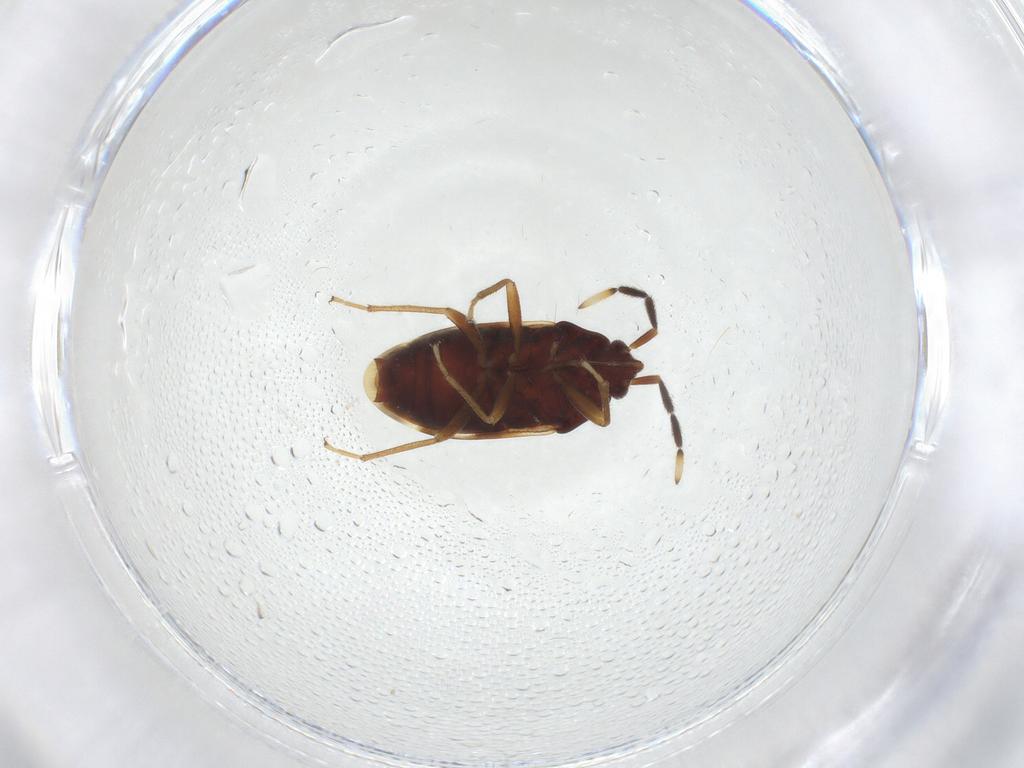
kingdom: Animalia
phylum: Arthropoda
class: Insecta
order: Hemiptera
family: Rhyparochromidae
